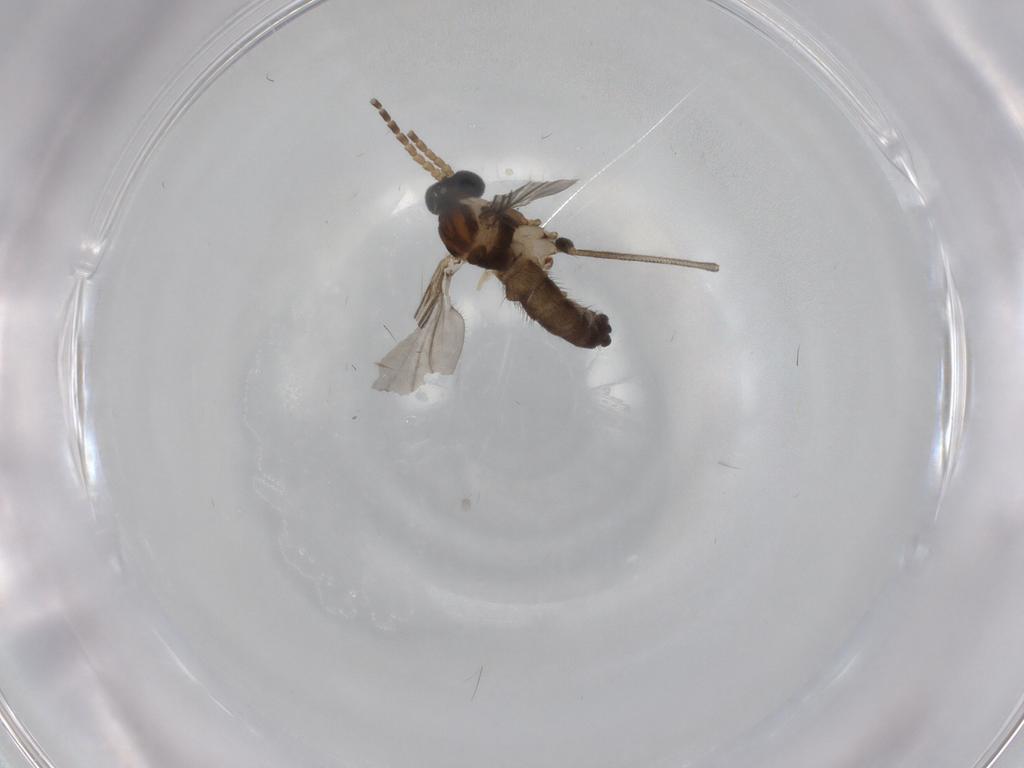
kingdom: Animalia
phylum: Arthropoda
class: Insecta
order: Diptera
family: Sciaridae
